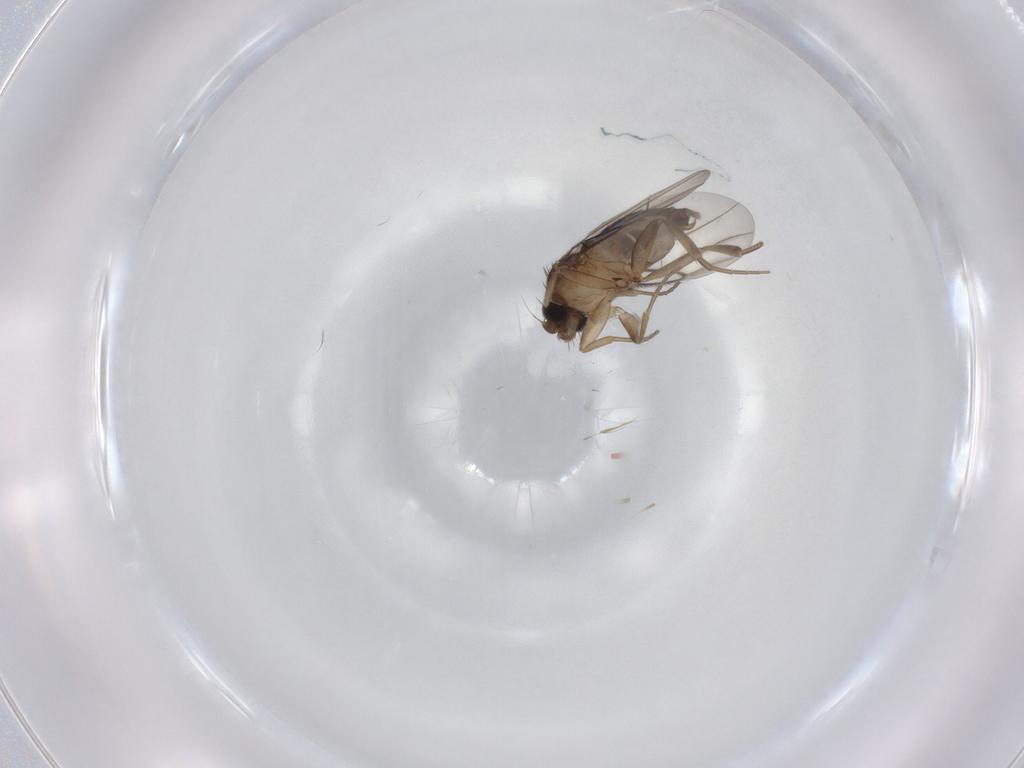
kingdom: Animalia
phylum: Arthropoda
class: Insecta
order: Diptera
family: Phoridae
